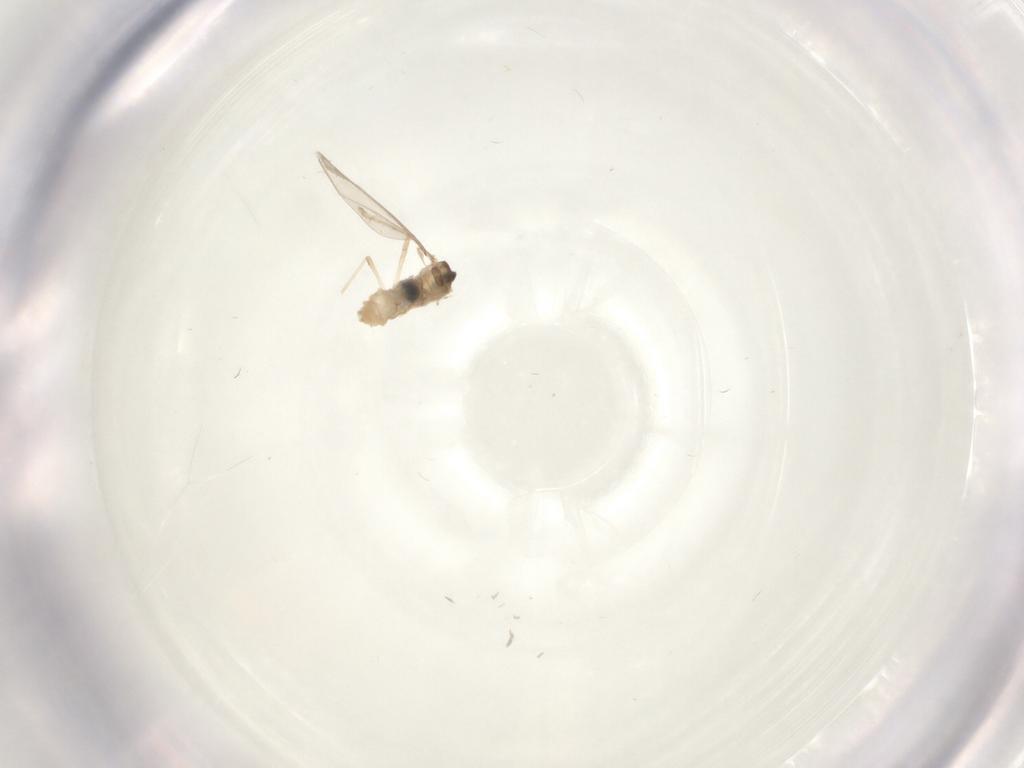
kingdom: Animalia
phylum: Arthropoda
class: Insecta
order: Diptera
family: Cecidomyiidae
